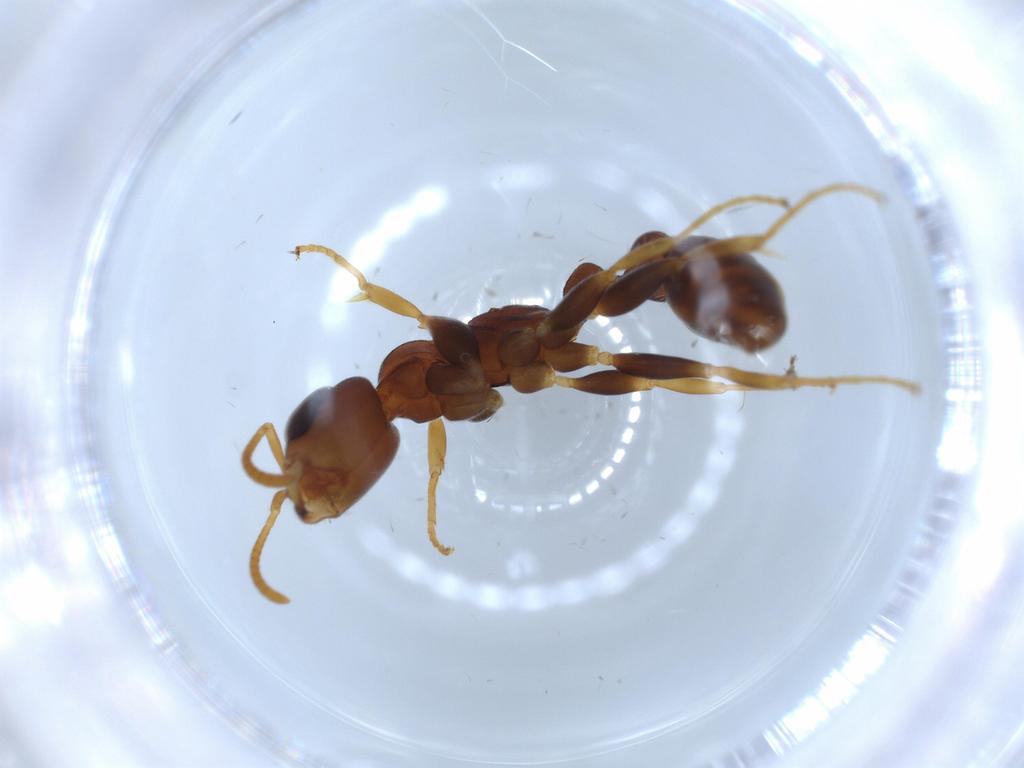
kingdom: Animalia
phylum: Arthropoda
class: Insecta
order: Hymenoptera
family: Formicidae
